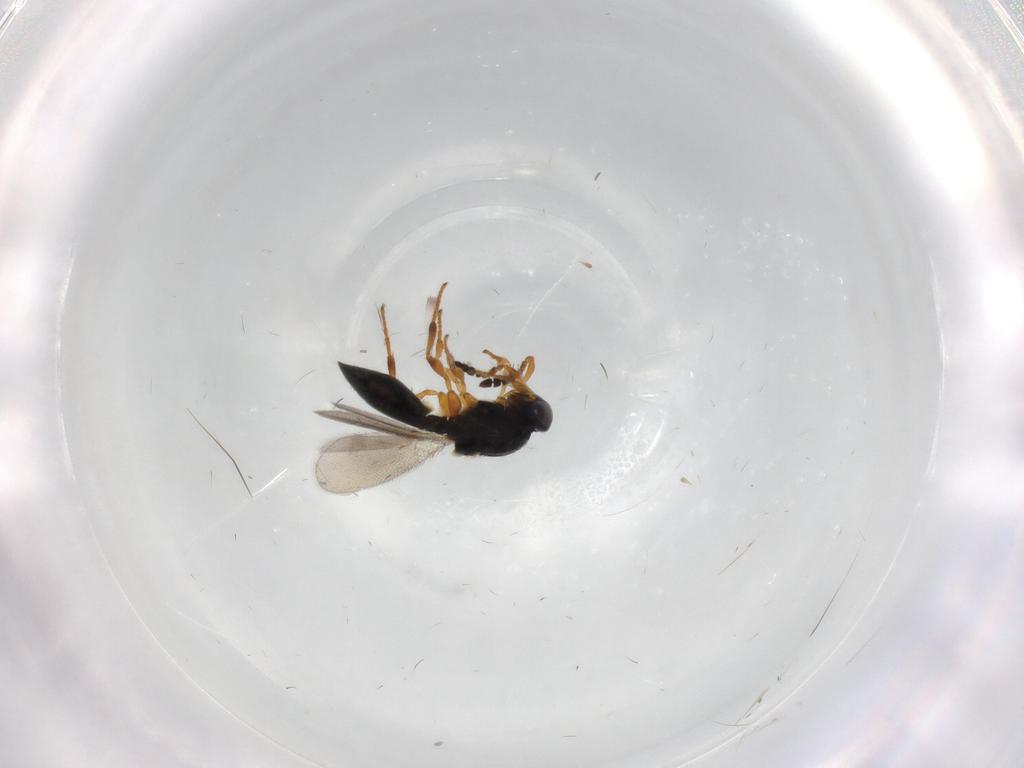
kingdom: Animalia
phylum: Arthropoda
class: Insecta
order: Hymenoptera
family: Platygastridae
